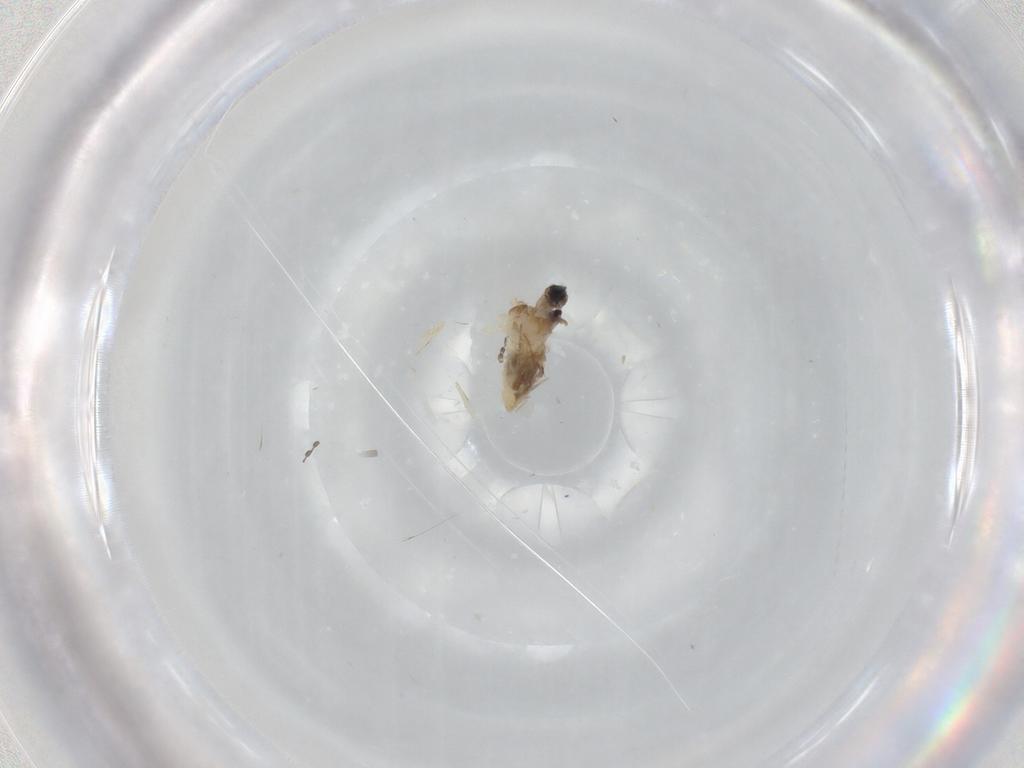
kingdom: Animalia
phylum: Arthropoda
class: Insecta
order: Diptera
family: Cecidomyiidae
